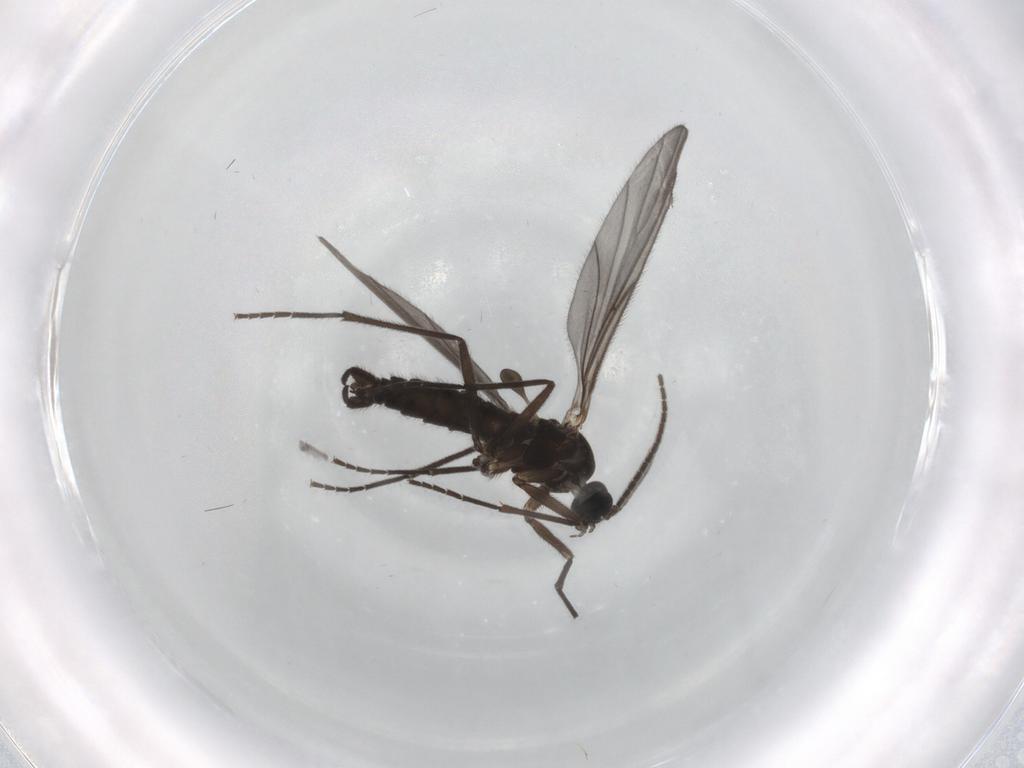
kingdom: Animalia
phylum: Arthropoda
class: Insecta
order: Diptera
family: Sciaridae
